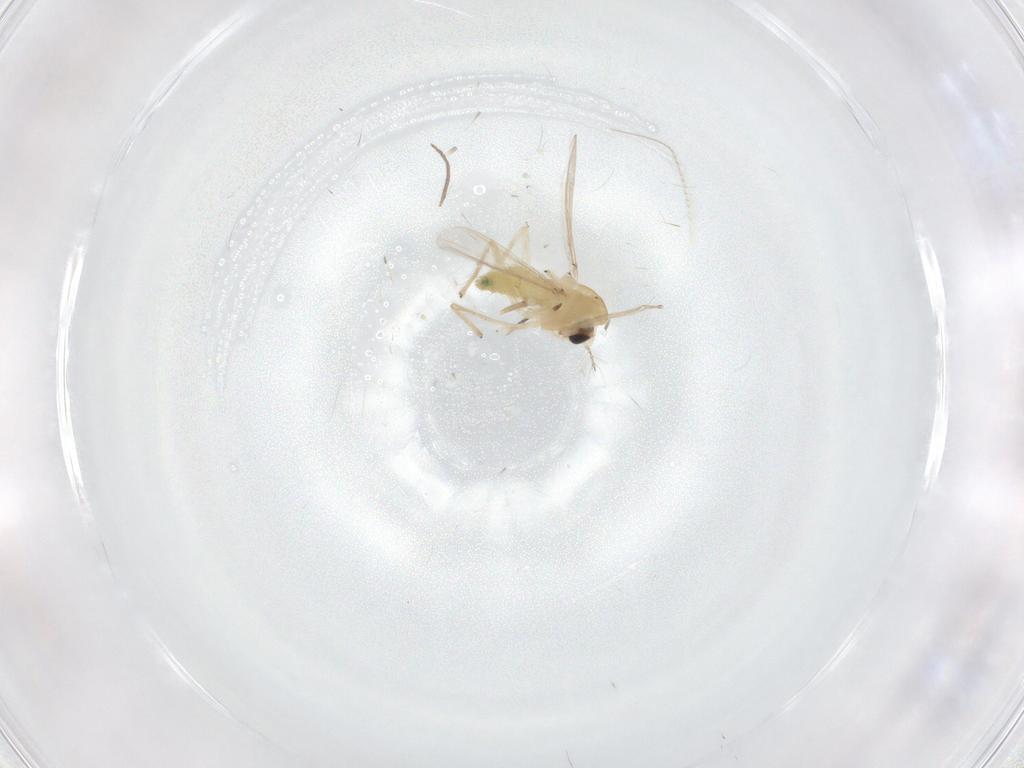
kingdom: Animalia
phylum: Arthropoda
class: Insecta
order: Diptera
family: Chironomidae
